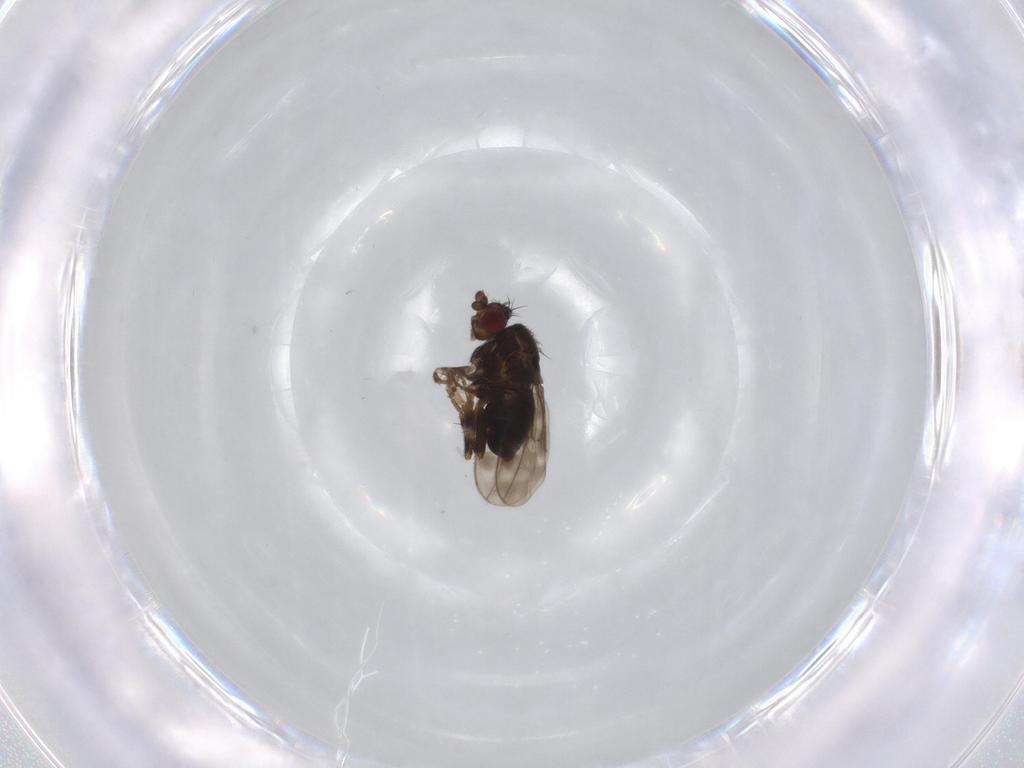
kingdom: Animalia
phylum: Arthropoda
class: Insecta
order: Diptera
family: Sphaeroceridae
